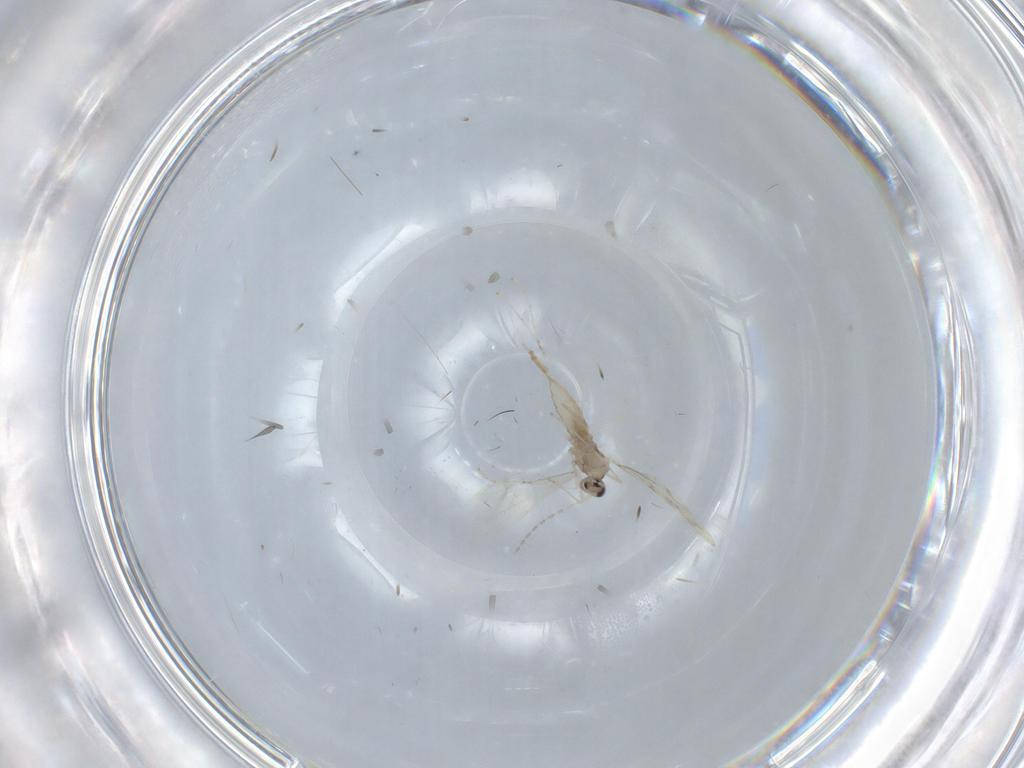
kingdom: Animalia
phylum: Arthropoda
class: Insecta
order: Diptera
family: Cecidomyiidae
